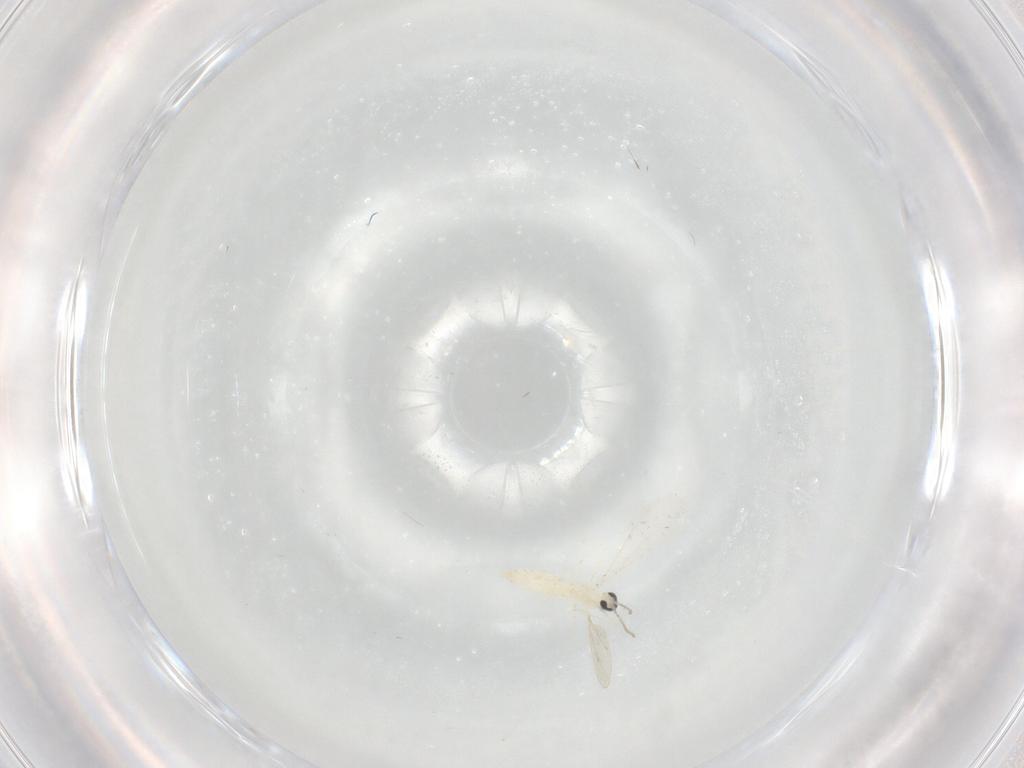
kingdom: Animalia
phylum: Arthropoda
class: Insecta
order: Diptera
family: Cecidomyiidae
